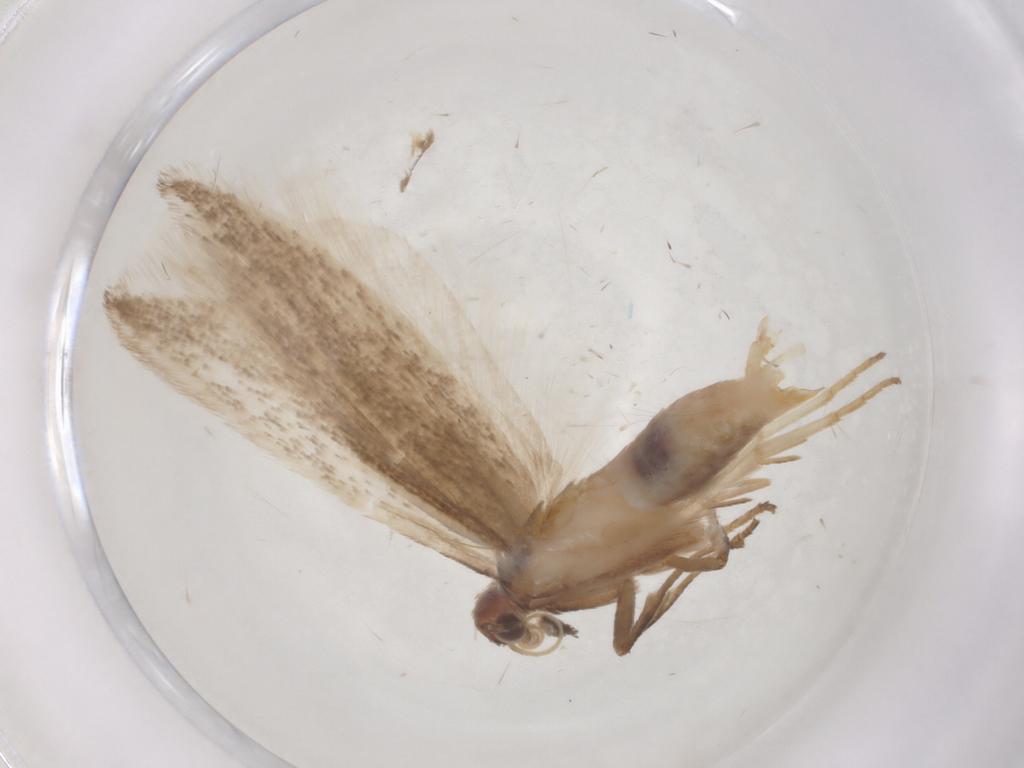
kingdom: Animalia
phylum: Arthropoda
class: Insecta
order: Lepidoptera
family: Gelechiidae
